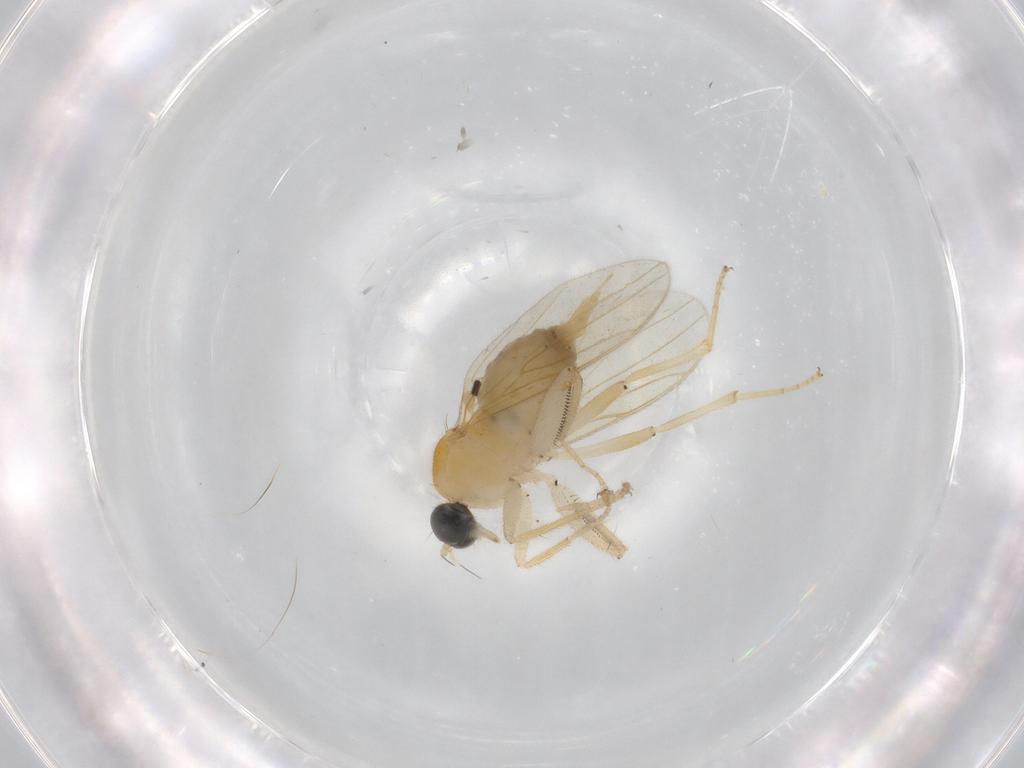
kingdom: Animalia
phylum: Arthropoda
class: Insecta
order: Diptera
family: Hybotidae
